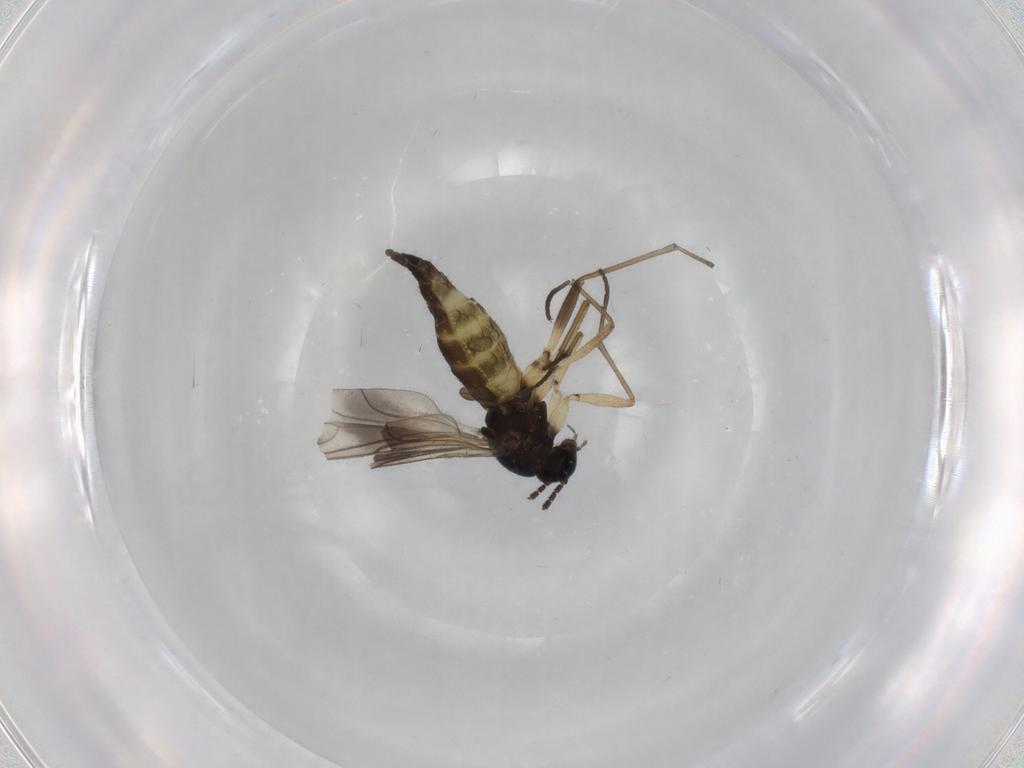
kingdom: Animalia
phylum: Arthropoda
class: Insecta
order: Diptera
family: Sciaridae
